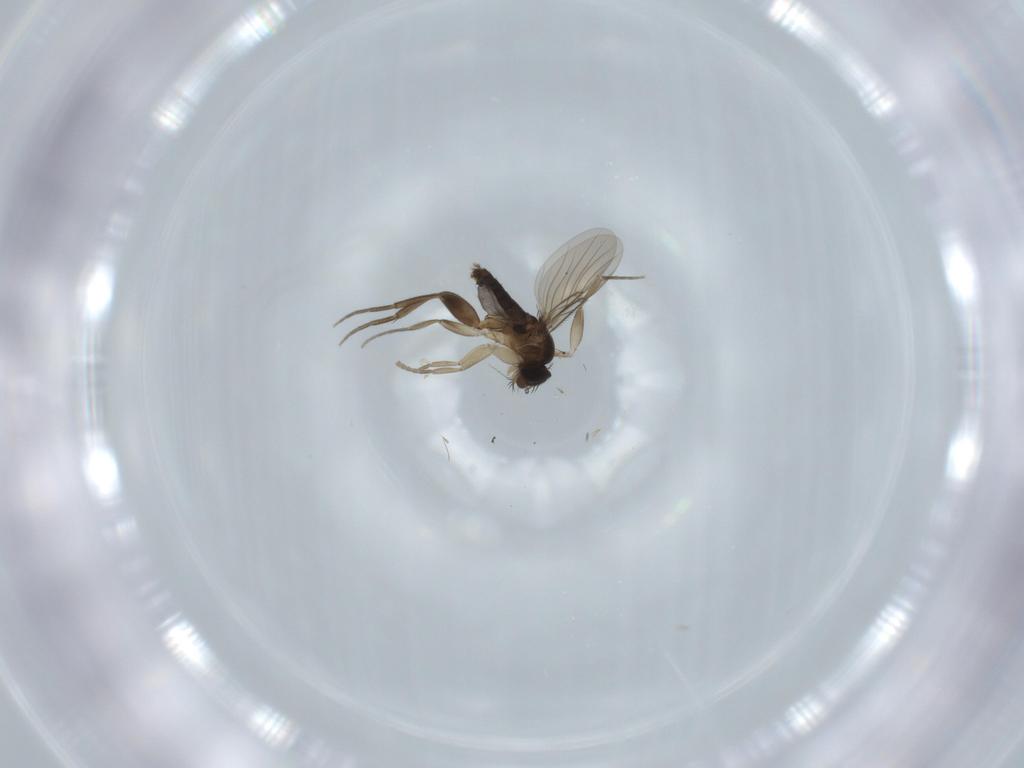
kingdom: Animalia
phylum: Arthropoda
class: Insecta
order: Diptera
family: Phoridae
